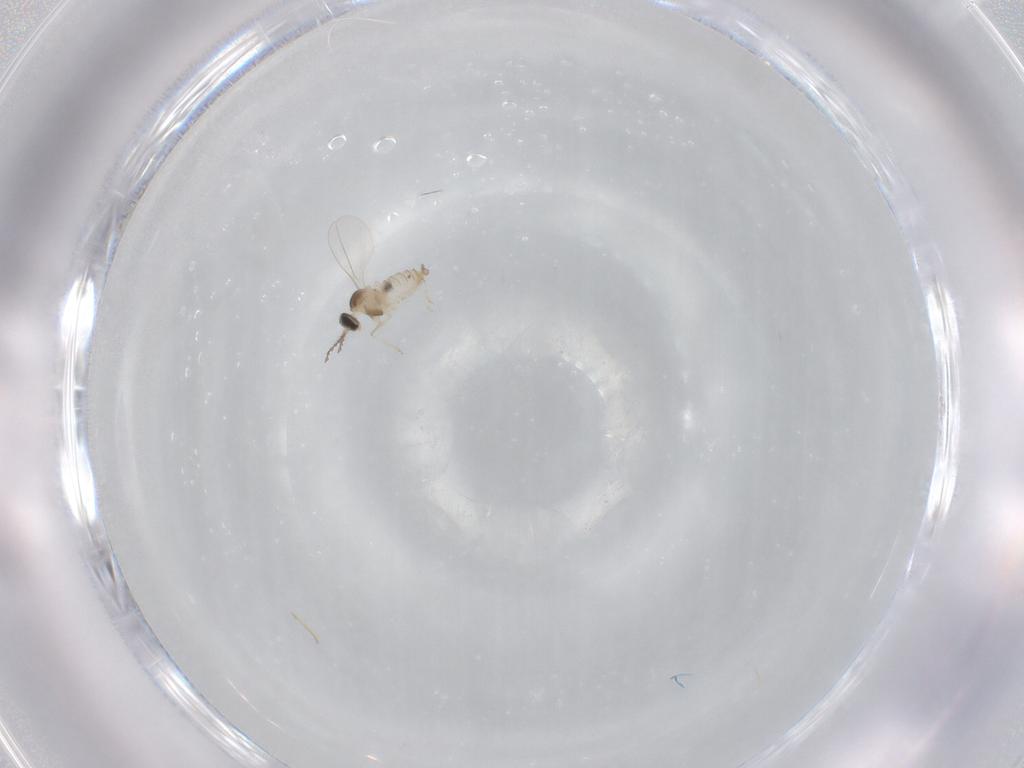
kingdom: Animalia
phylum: Arthropoda
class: Insecta
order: Diptera
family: Cecidomyiidae
